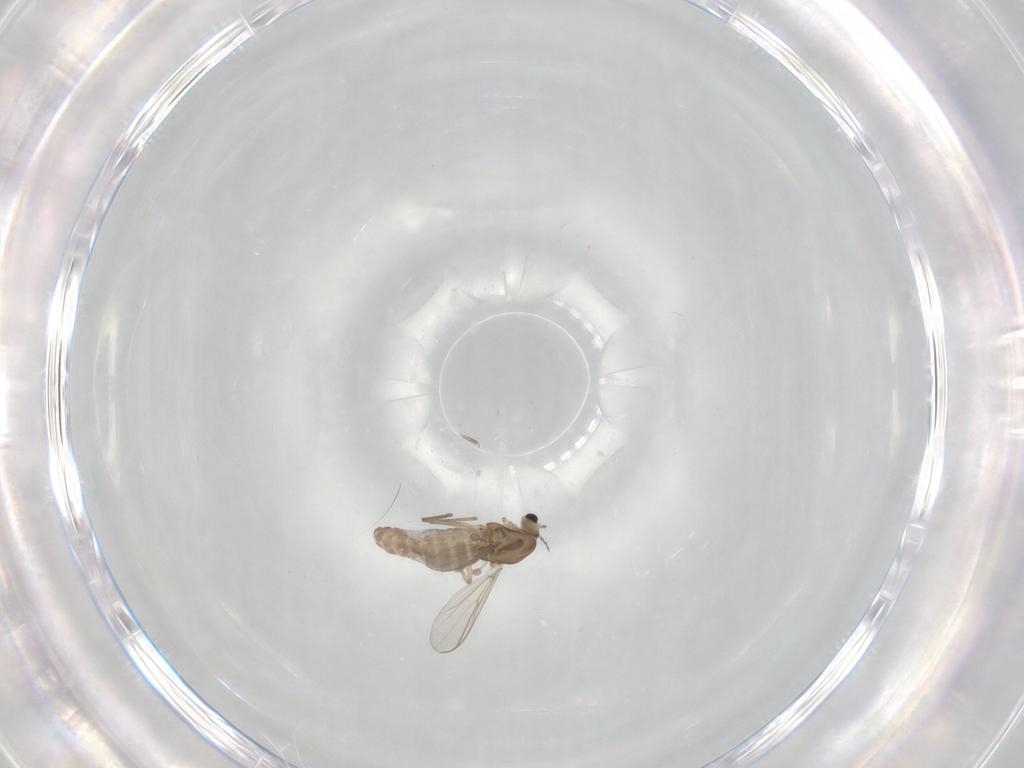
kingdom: Animalia
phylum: Arthropoda
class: Insecta
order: Diptera
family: Chironomidae
